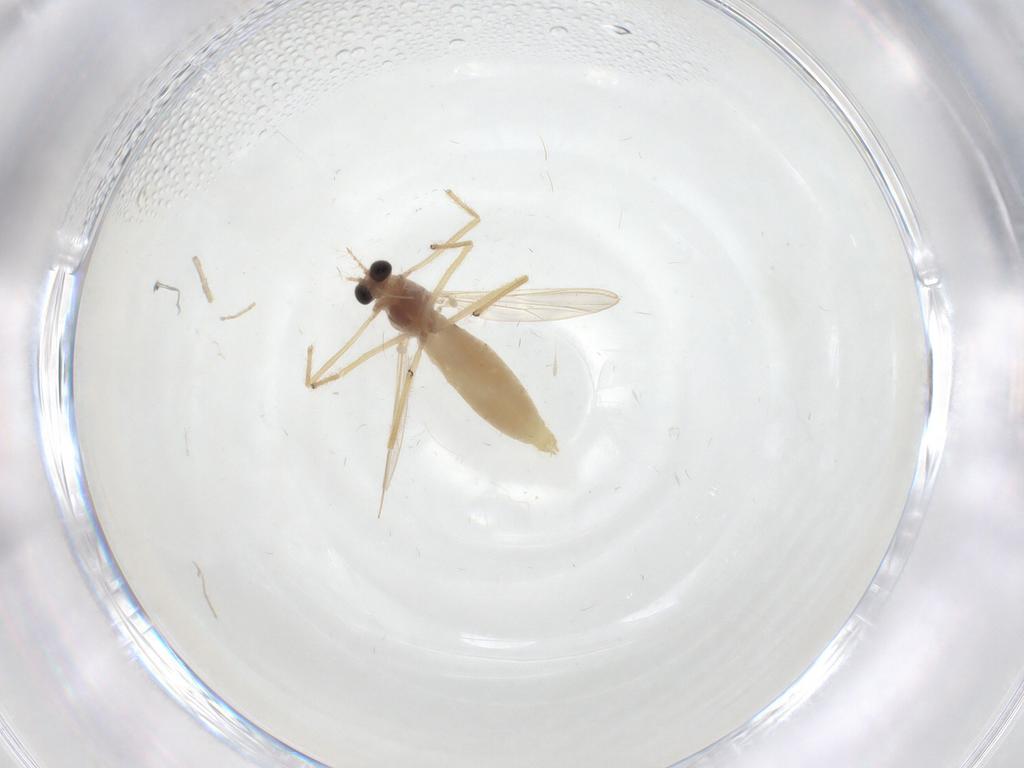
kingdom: Animalia
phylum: Arthropoda
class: Insecta
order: Diptera
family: Chironomidae
